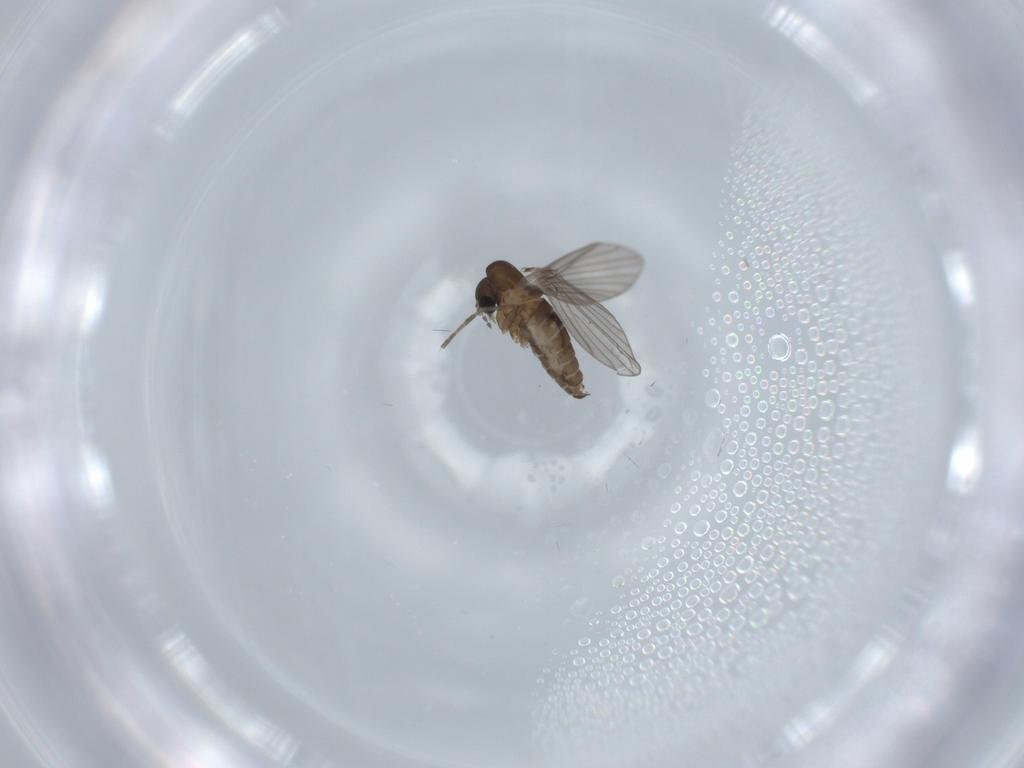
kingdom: Animalia
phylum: Arthropoda
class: Insecta
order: Diptera
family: Psychodidae
